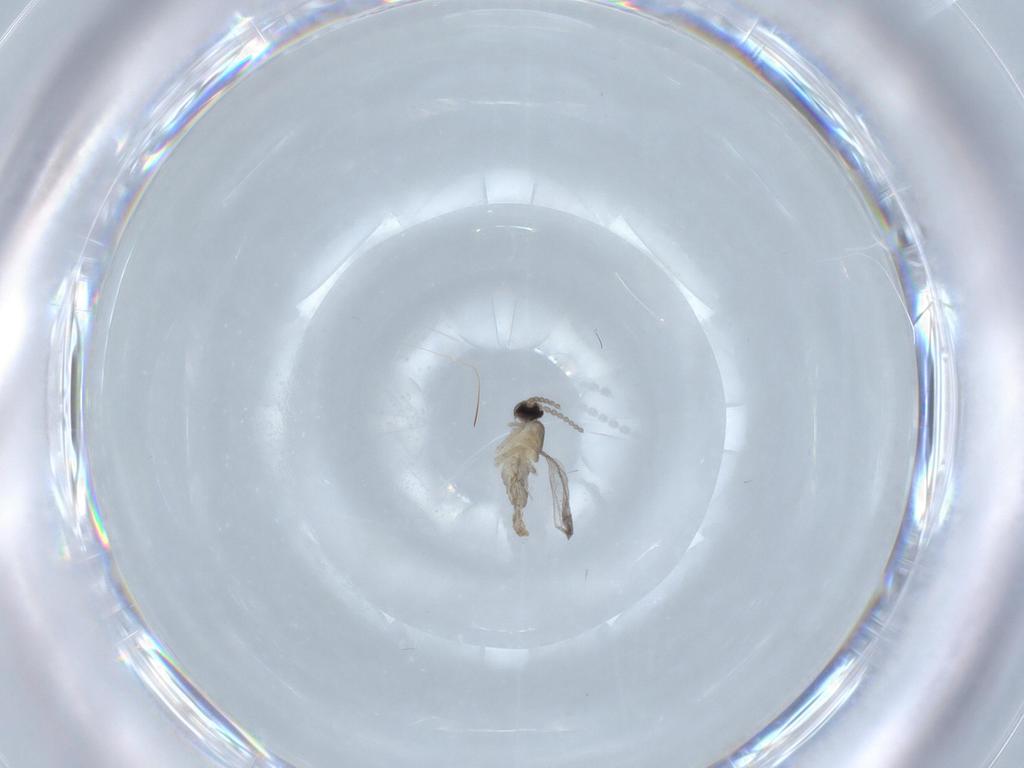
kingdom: Animalia
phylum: Arthropoda
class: Insecta
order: Diptera
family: Cecidomyiidae
